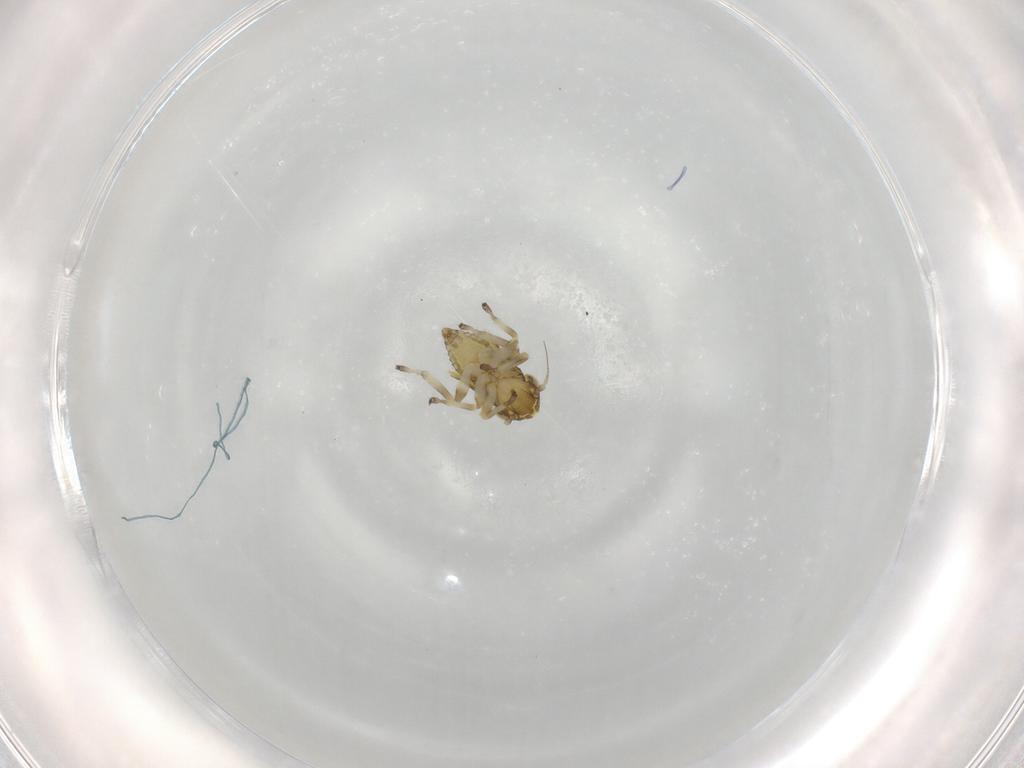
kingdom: Animalia
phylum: Arthropoda
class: Insecta
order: Hemiptera
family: Cicadellidae
